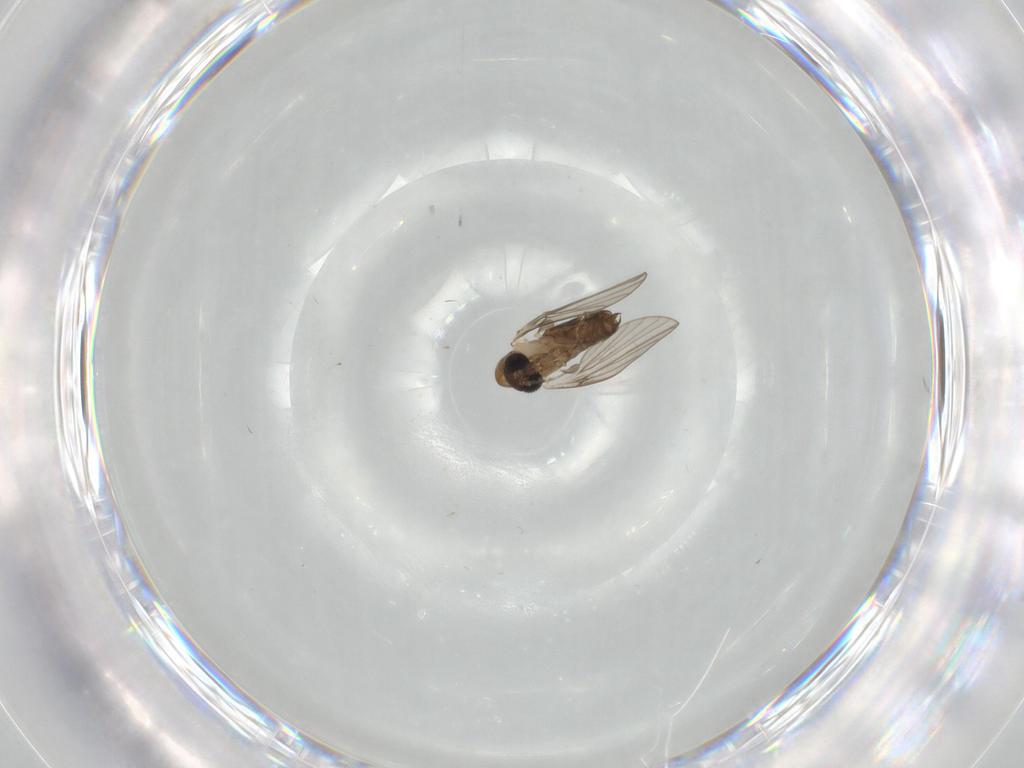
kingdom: Animalia
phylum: Arthropoda
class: Insecta
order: Diptera
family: Psychodidae
